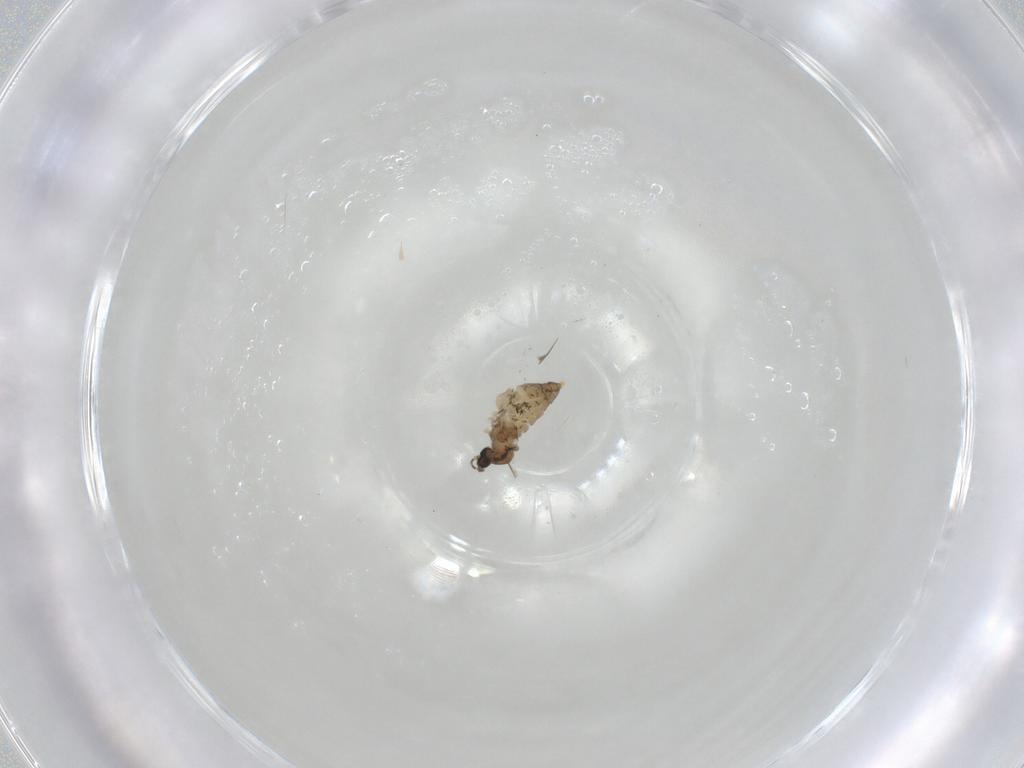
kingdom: Animalia
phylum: Arthropoda
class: Insecta
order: Diptera
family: Cecidomyiidae
